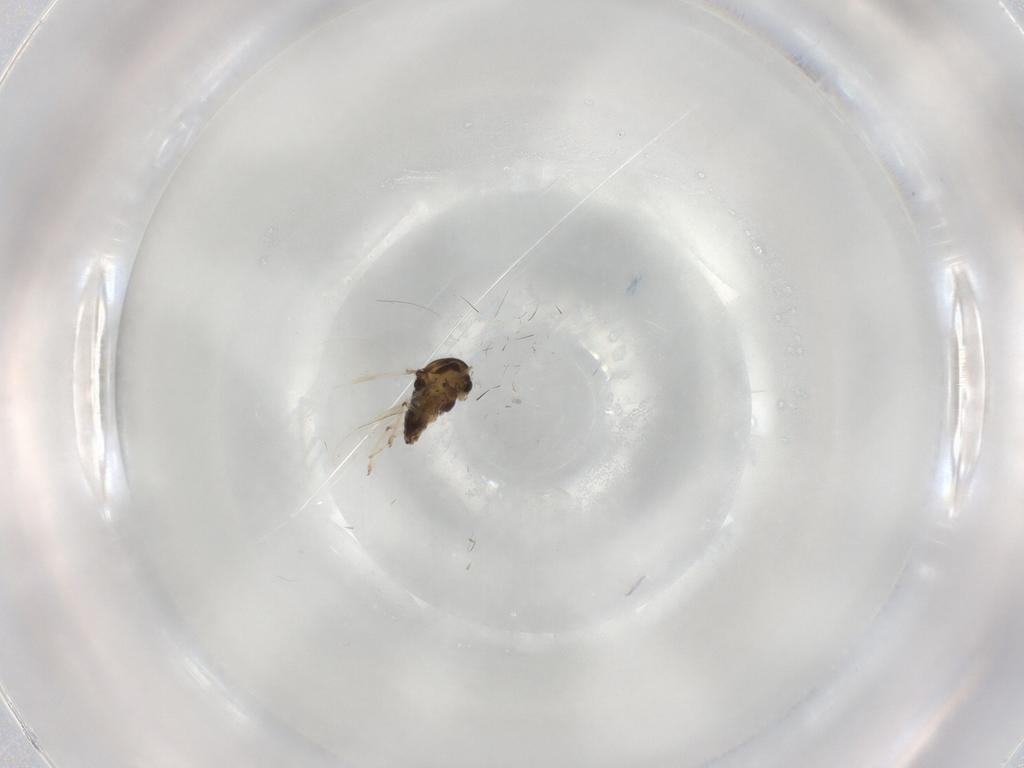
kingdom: Animalia
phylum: Arthropoda
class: Insecta
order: Diptera
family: Chironomidae
